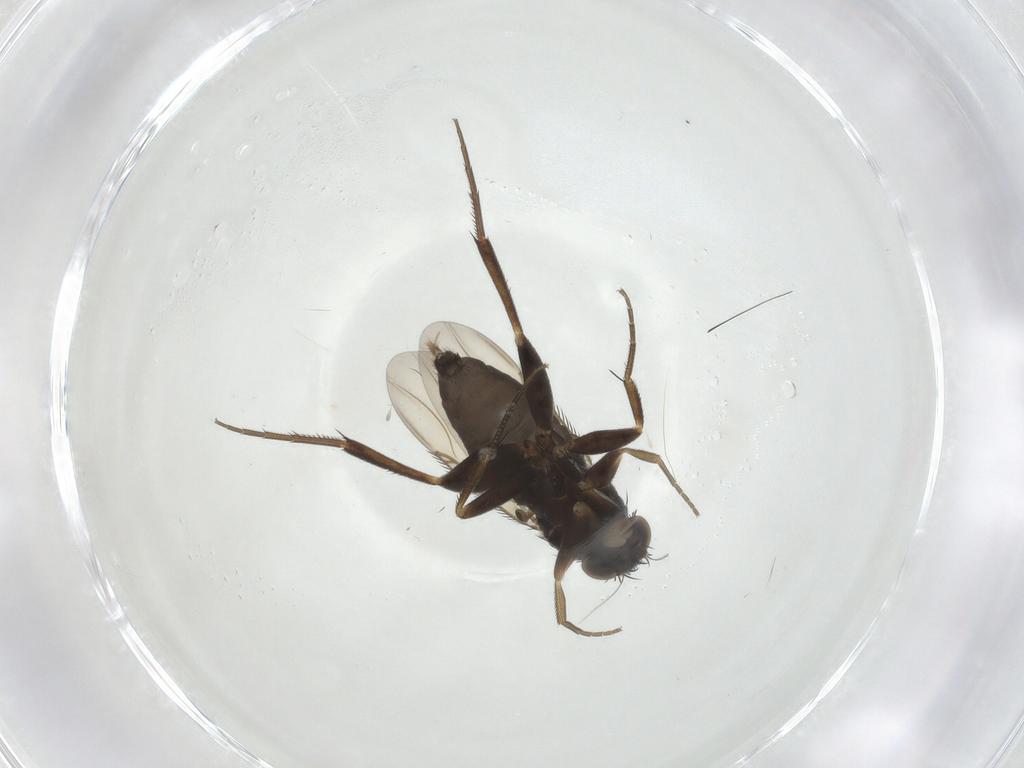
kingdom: Animalia
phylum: Arthropoda
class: Insecta
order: Diptera
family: Phoridae
